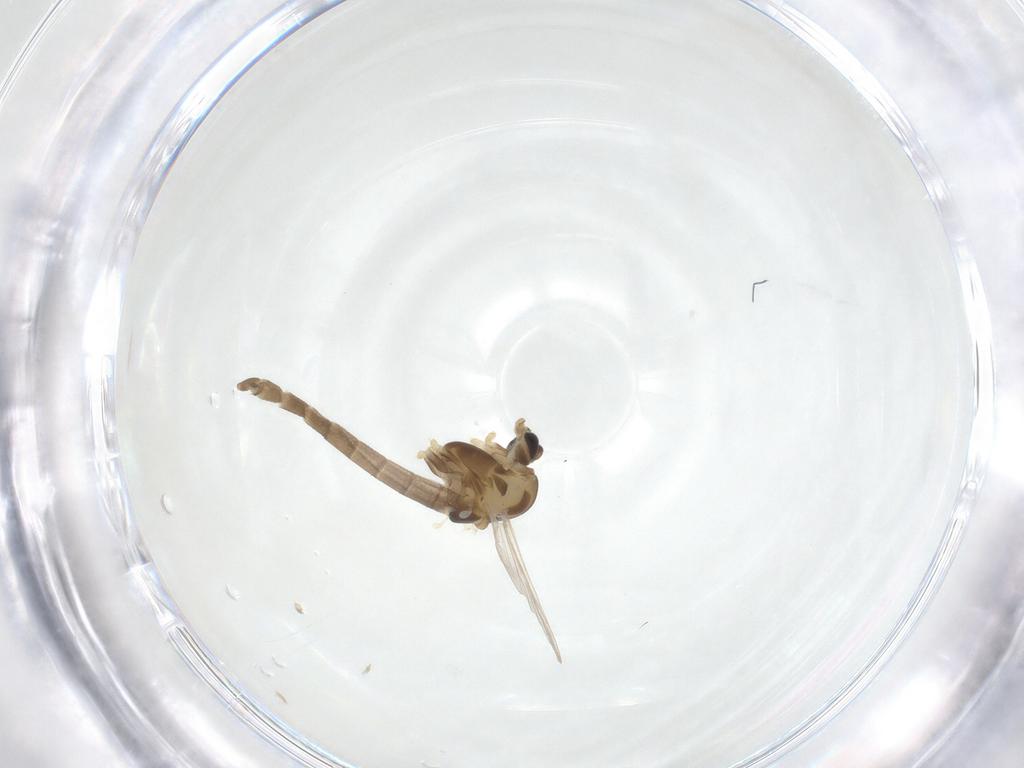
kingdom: Animalia
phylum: Arthropoda
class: Insecta
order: Diptera
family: Chironomidae
